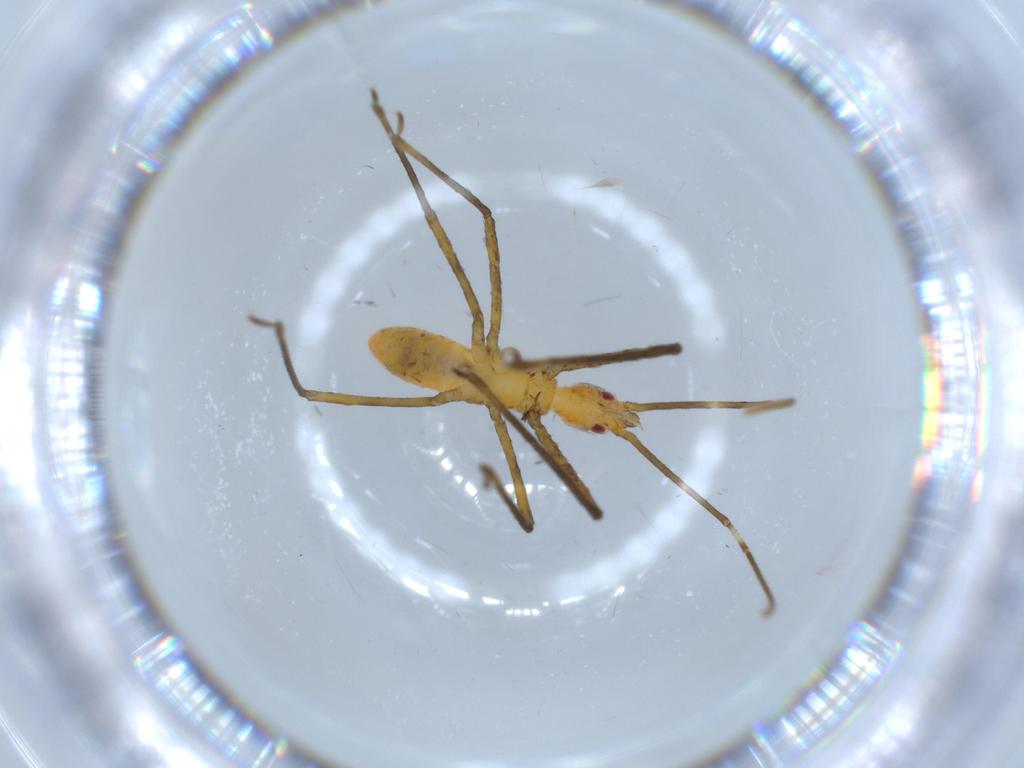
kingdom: Animalia
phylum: Arthropoda
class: Insecta
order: Hemiptera
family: Reduviidae
